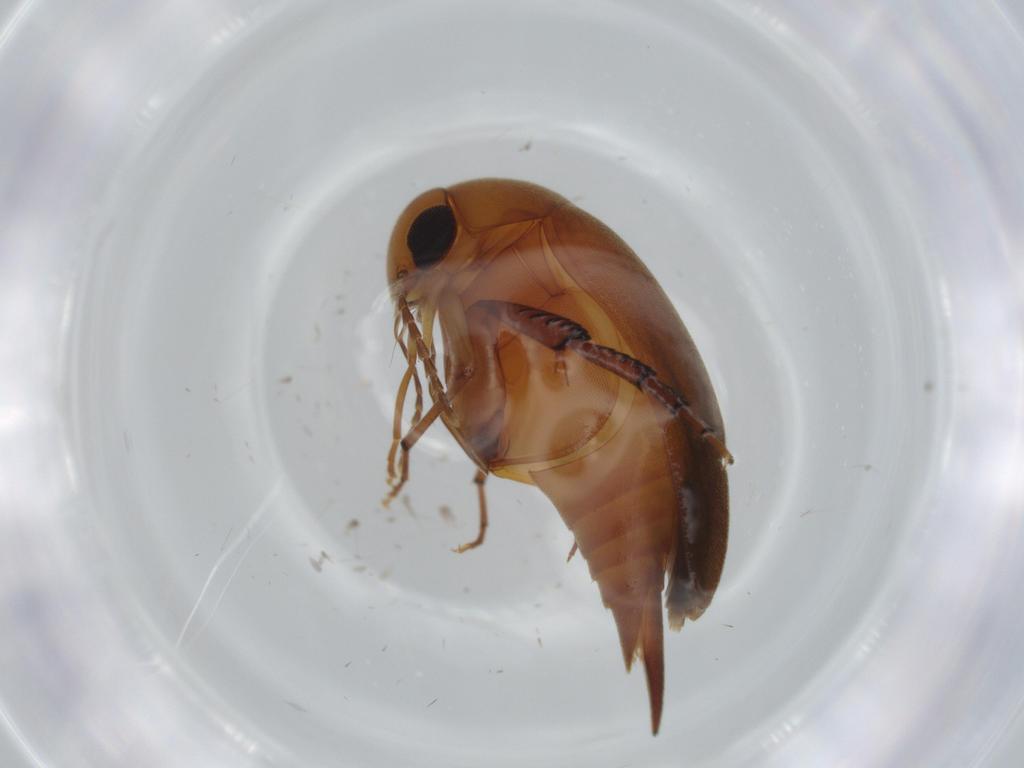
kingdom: Animalia
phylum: Arthropoda
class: Insecta
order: Coleoptera
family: Mordellidae
